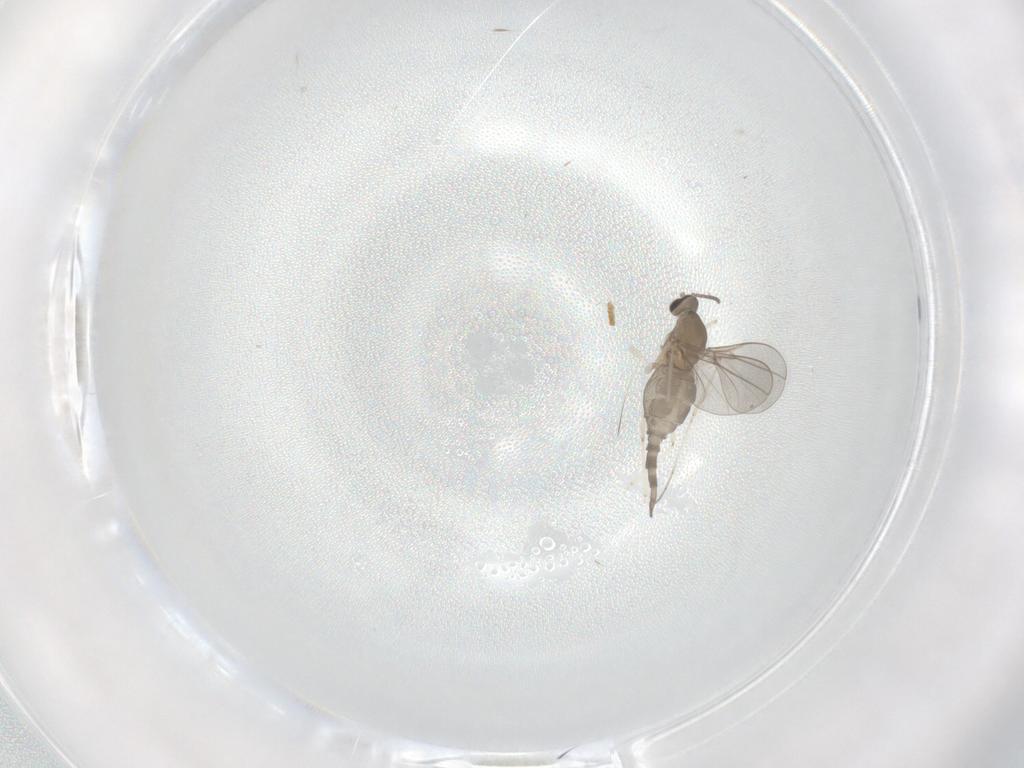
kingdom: Animalia
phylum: Arthropoda
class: Insecta
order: Diptera
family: Cecidomyiidae
